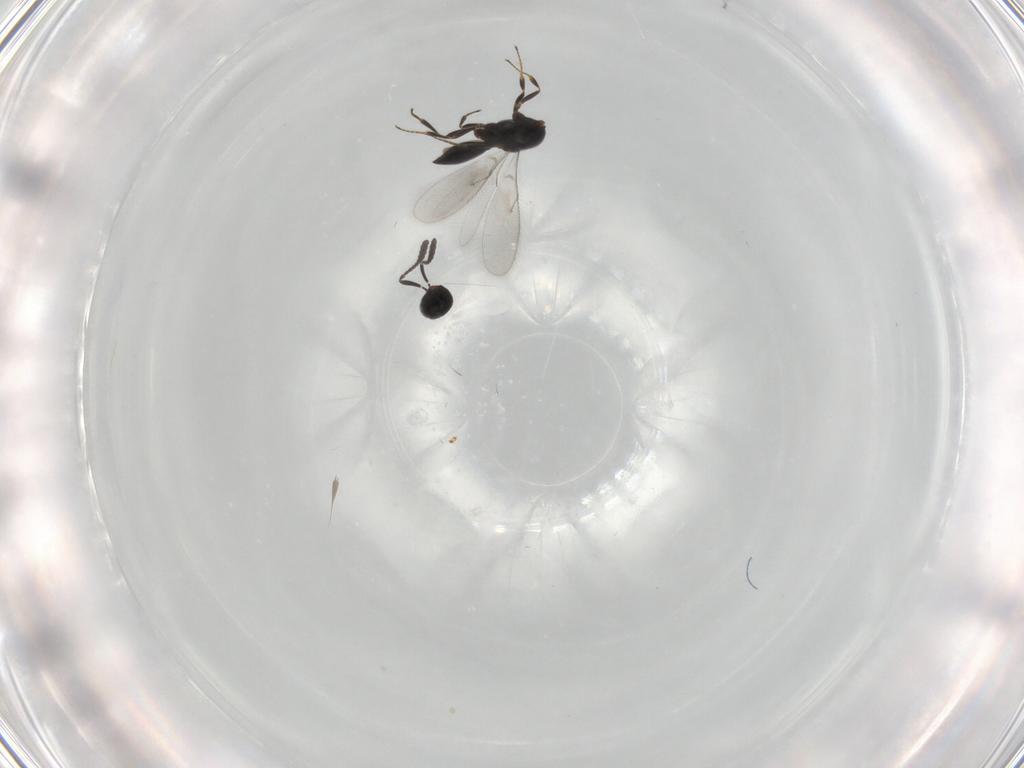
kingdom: Animalia
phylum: Arthropoda
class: Insecta
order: Hymenoptera
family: Scelionidae
